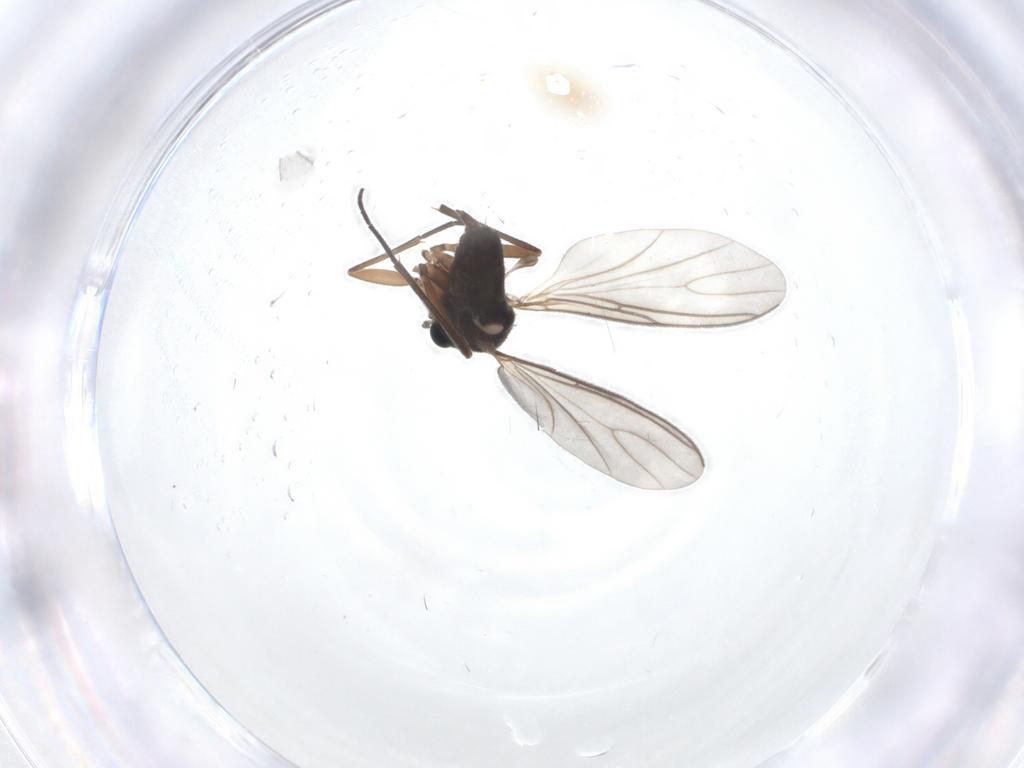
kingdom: Animalia
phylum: Arthropoda
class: Insecta
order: Diptera
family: Sciaridae
